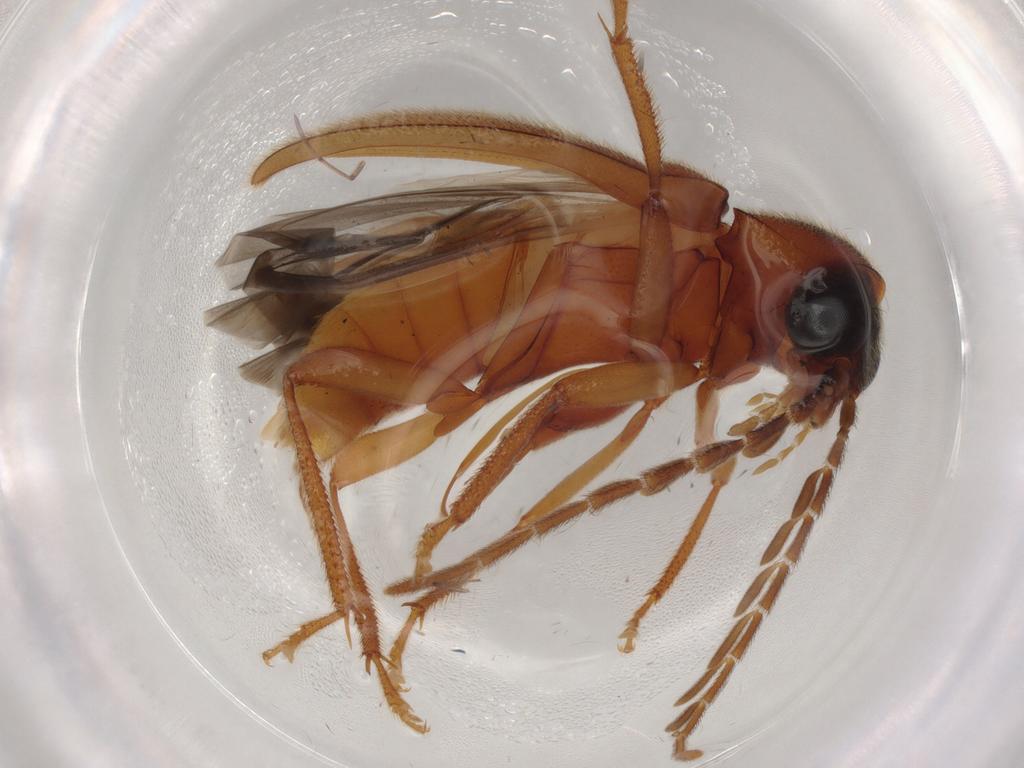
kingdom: Animalia
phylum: Arthropoda
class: Insecta
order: Coleoptera
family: Ptilodactylidae
